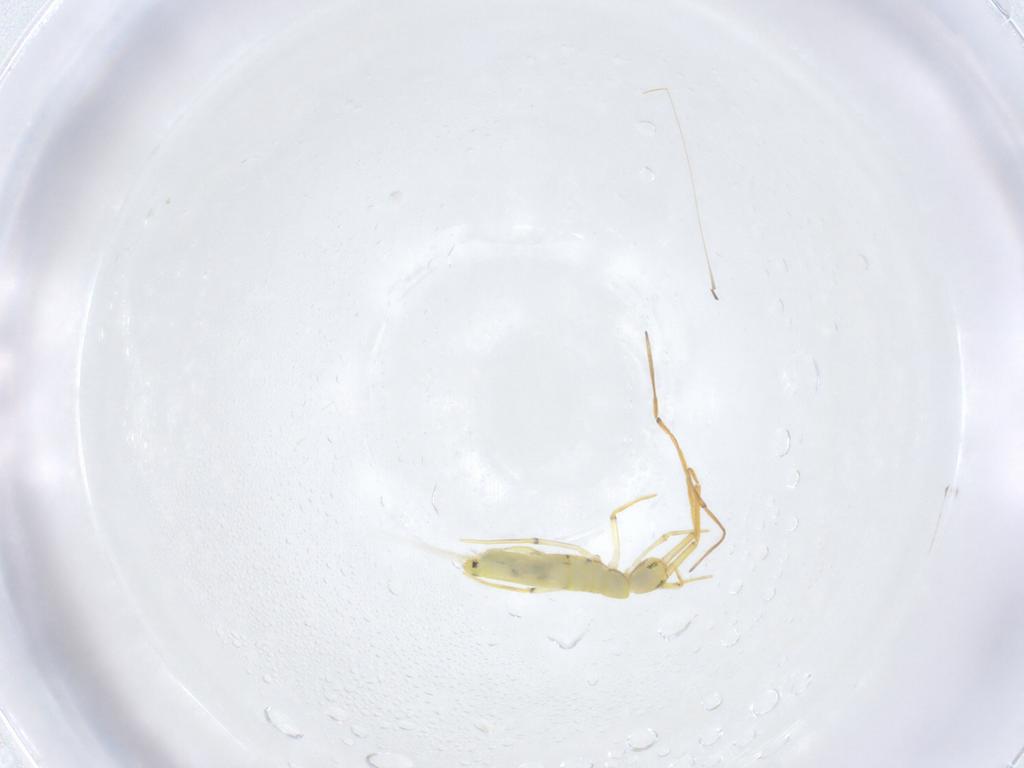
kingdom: Animalia
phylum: Arthropoda
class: Collembola
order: Entomobryomorpha
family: Entomobryidae
